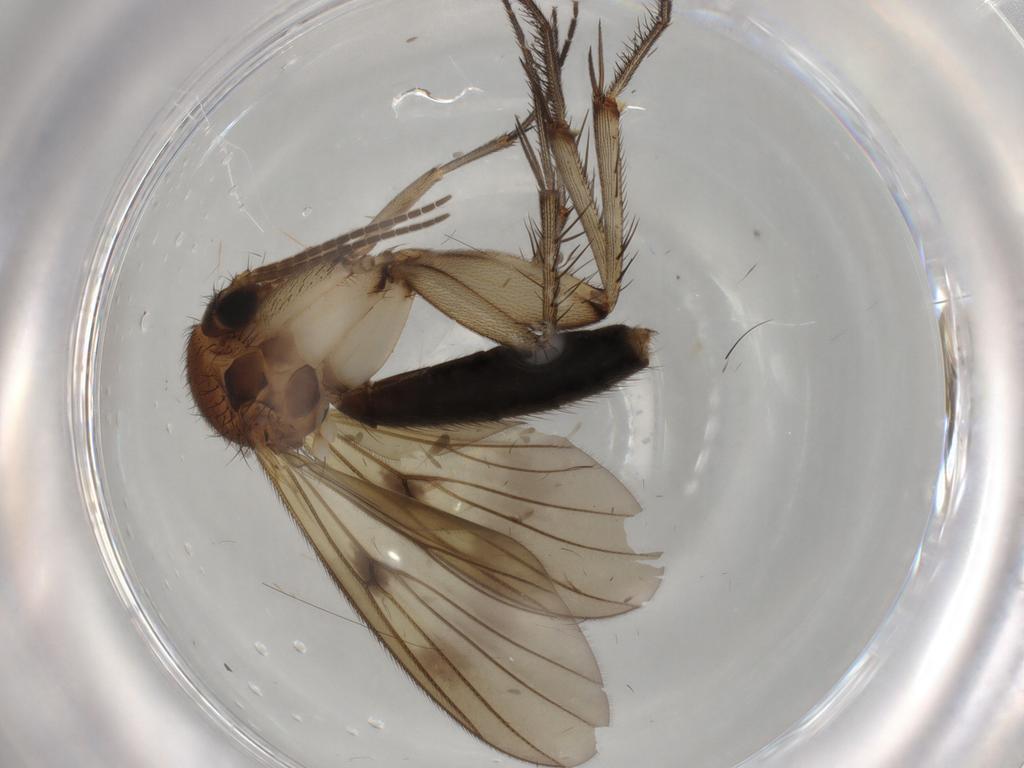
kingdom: Animalia
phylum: Arthropoda
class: Insecta
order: Diptera
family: Mycetophilidae
